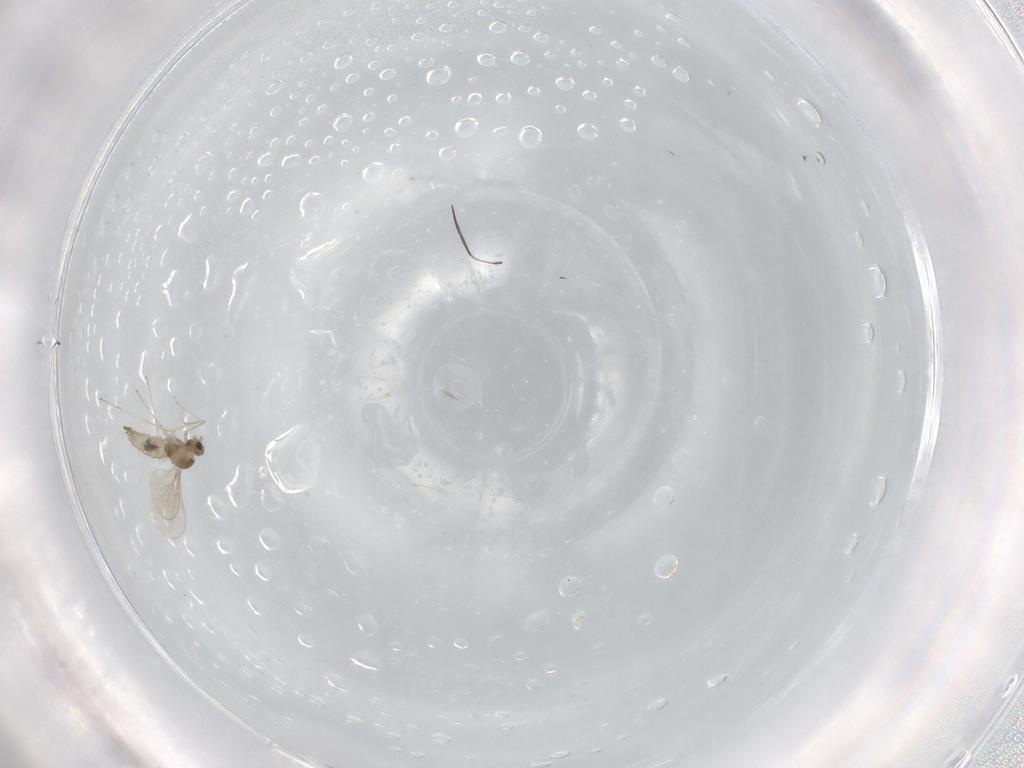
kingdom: Animalia
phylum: Arthropoda
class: Insecta
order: Diptera
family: Cecidomyiidae
